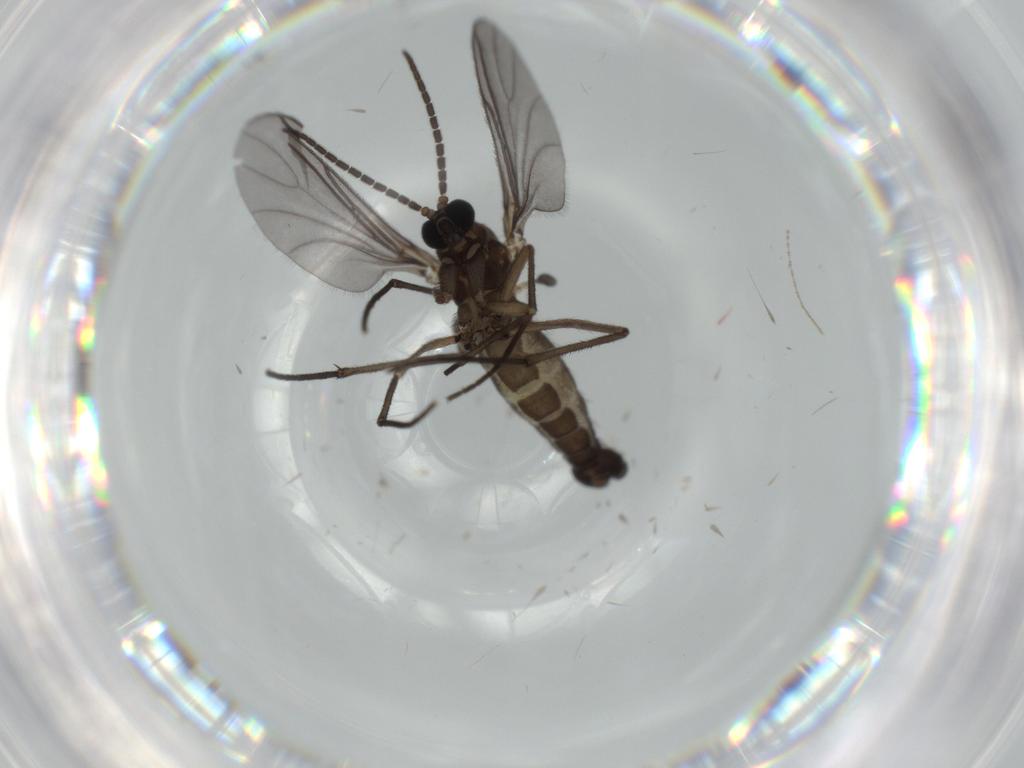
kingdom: Animalia
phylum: Arthropoda
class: Insecta
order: Diptera
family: Sciaridae
